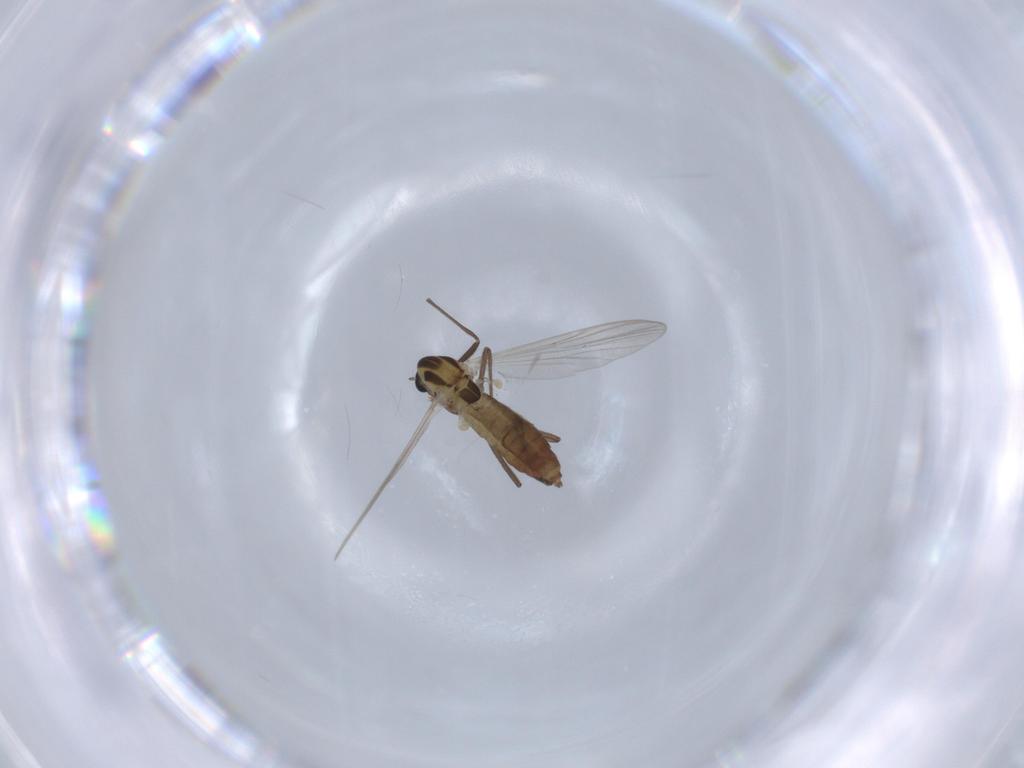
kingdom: Animalia
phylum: Arthropoda
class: Insecta
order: Diptera
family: Chironomidae
